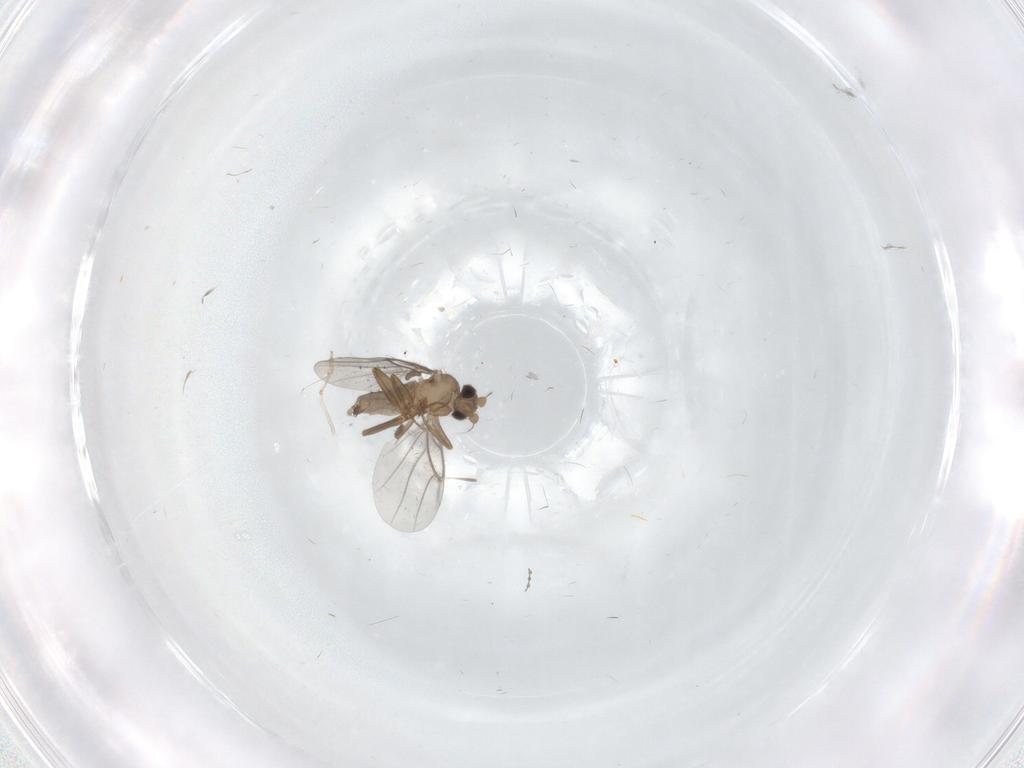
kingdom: Animalia
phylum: Arthropoda
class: Insecta
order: Diptera
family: Cecidomyiidae
